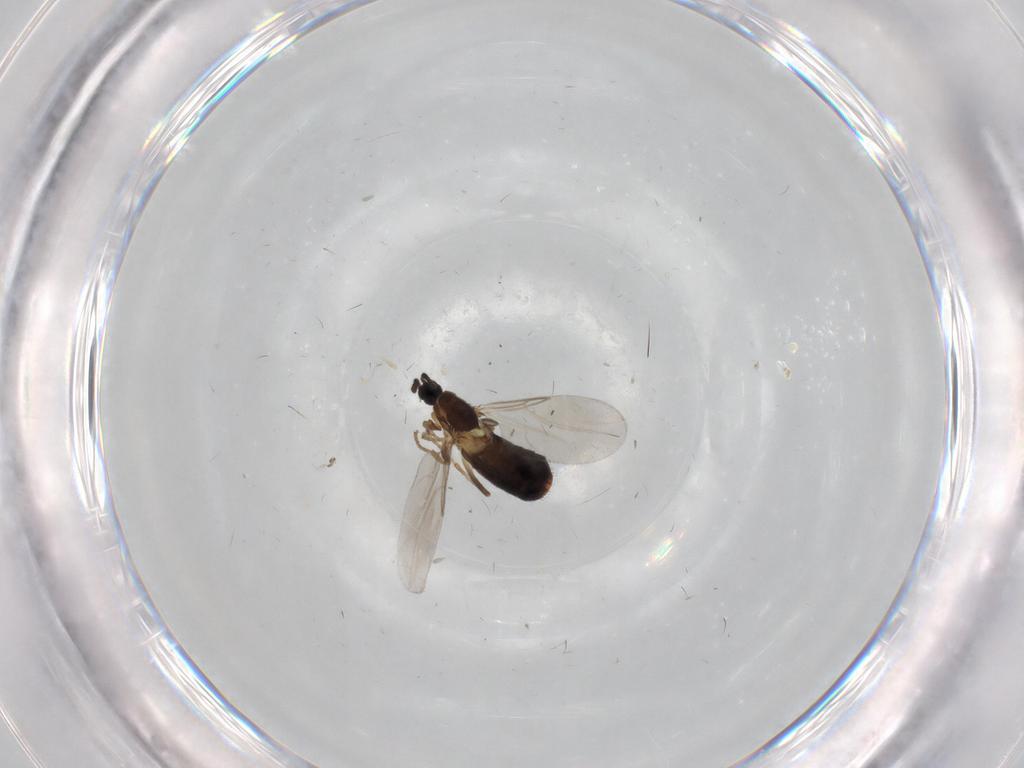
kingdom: Animalia
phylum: Arthropoda
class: Insecta
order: Diptera
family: Scatopsidae
